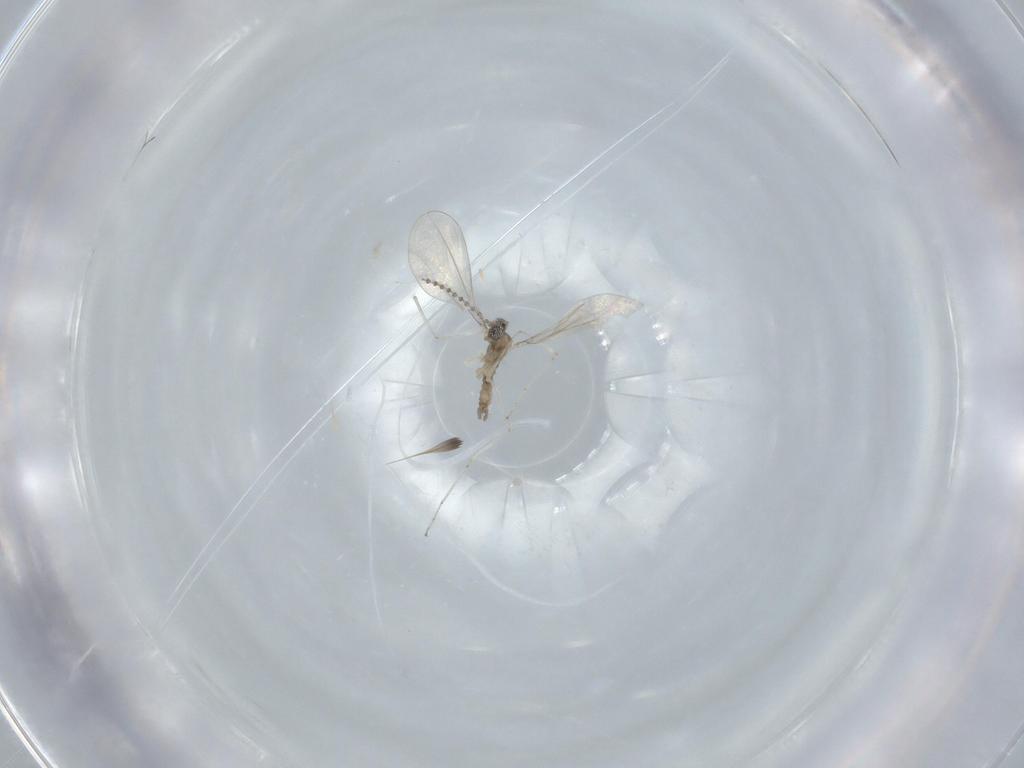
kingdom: Animalia
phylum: Arthropoda
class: Insecta
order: Diptera
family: Cecidomyiidae
